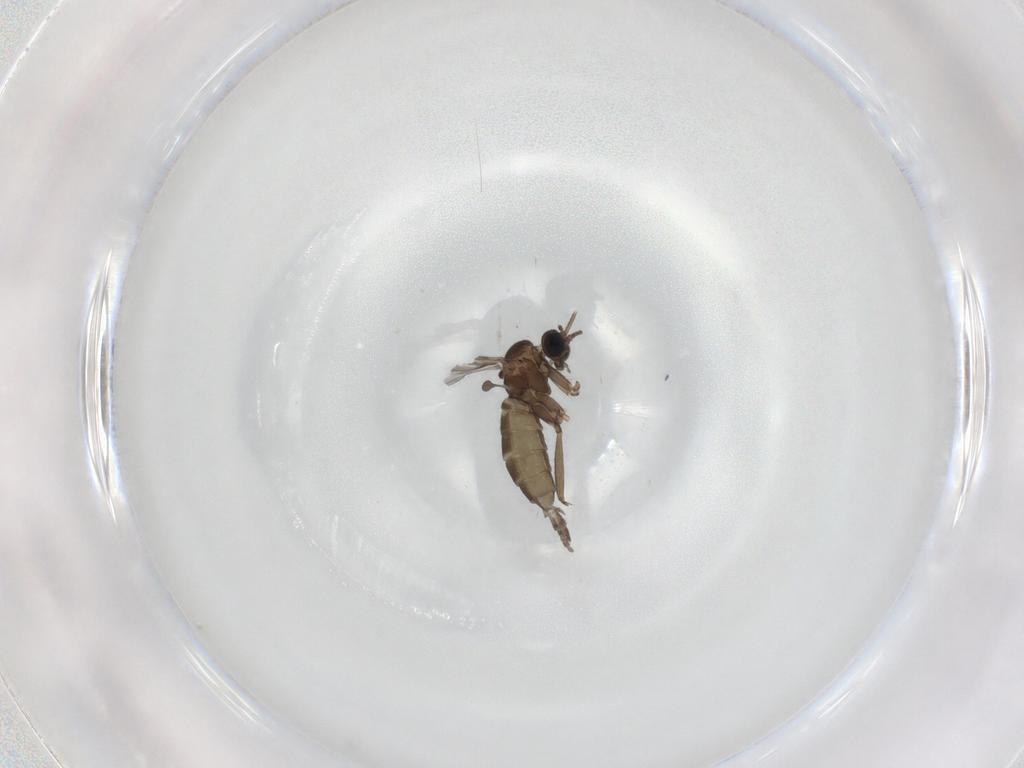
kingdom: Animalia
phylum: Arthropoda
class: Insecta
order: Diptera
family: Sciaridae
